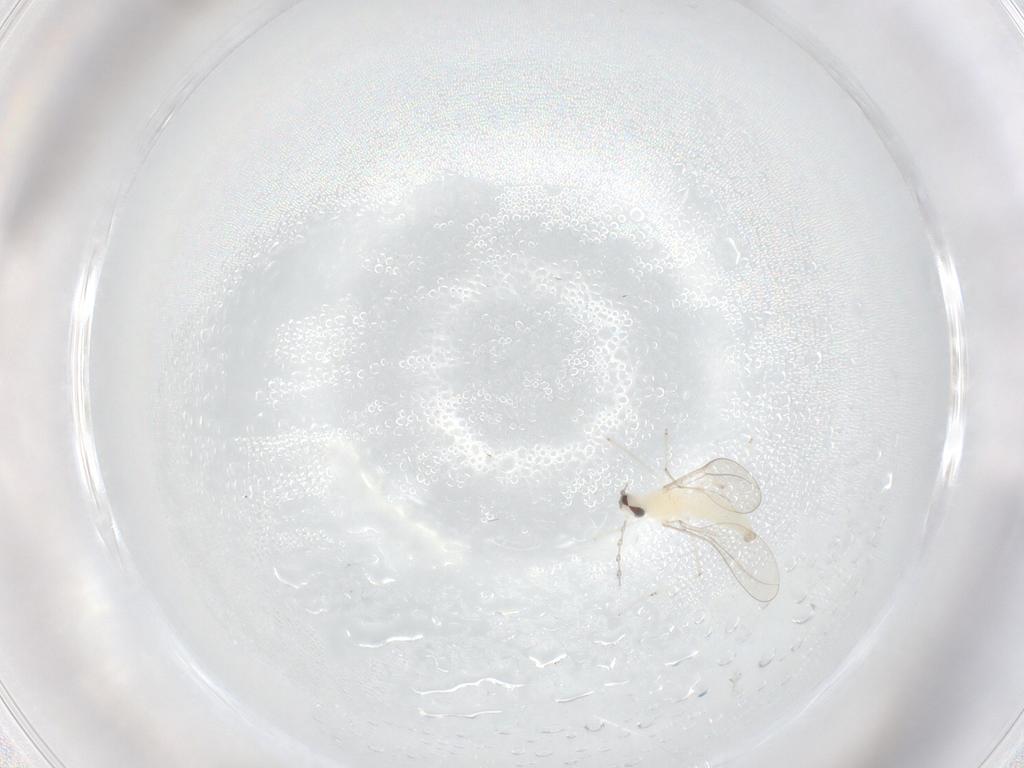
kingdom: Animalia
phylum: Arthropoda
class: Insecta
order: Diptera
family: Cecidomyiidae
